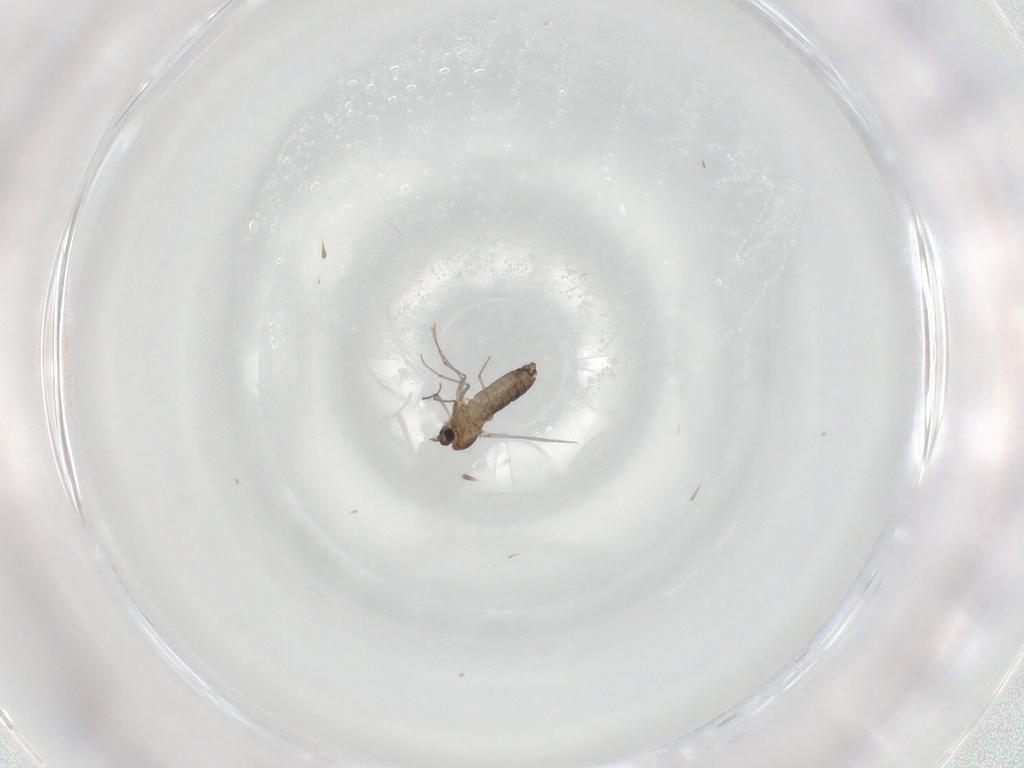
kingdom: Animalia
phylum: Arthropoda
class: Insecta
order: Diptera
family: Chironomidae
